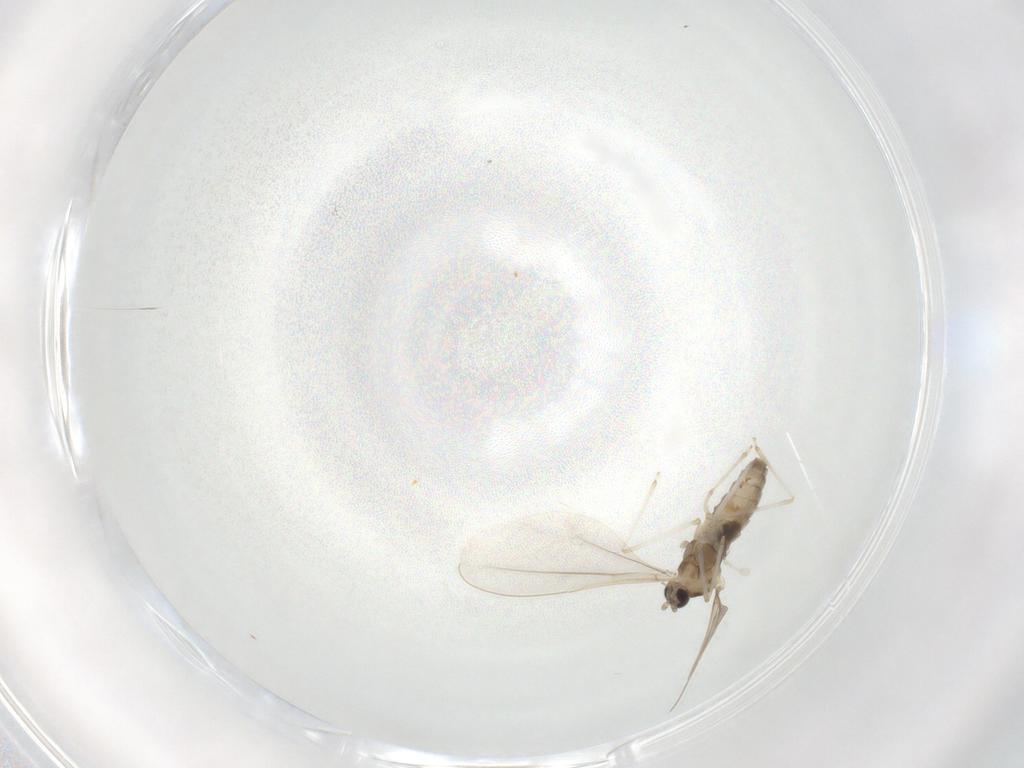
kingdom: Animalia
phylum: Arthropoda
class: Insecta
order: Diptera
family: Cecidomyiidae
